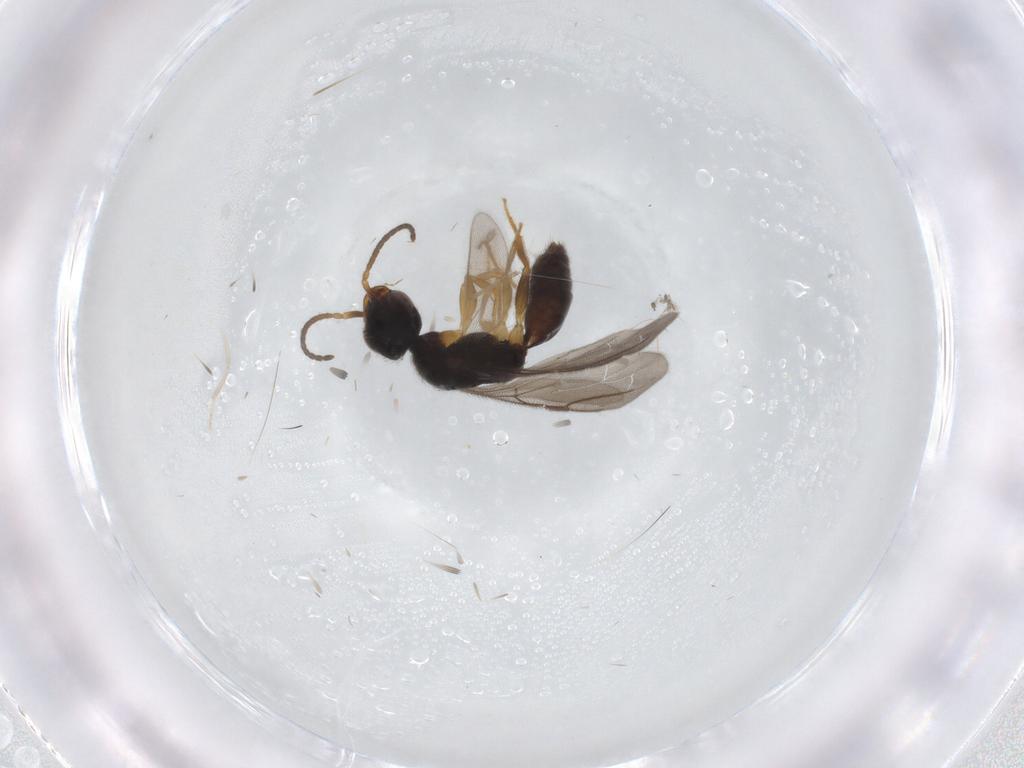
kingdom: Animalia
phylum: Arthropoda
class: Insecta
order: Hymenoptera
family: Bethylidae
